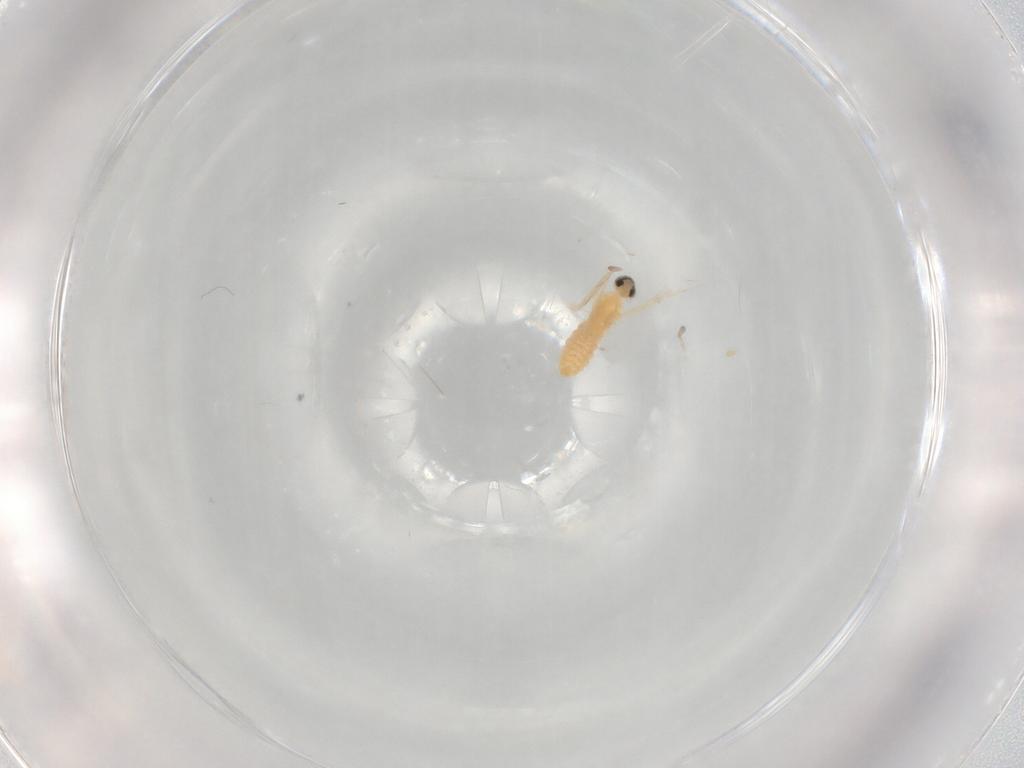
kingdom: Animalia
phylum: Arthropoda
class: Insecta
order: Diptera
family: Cecidomyiidae
